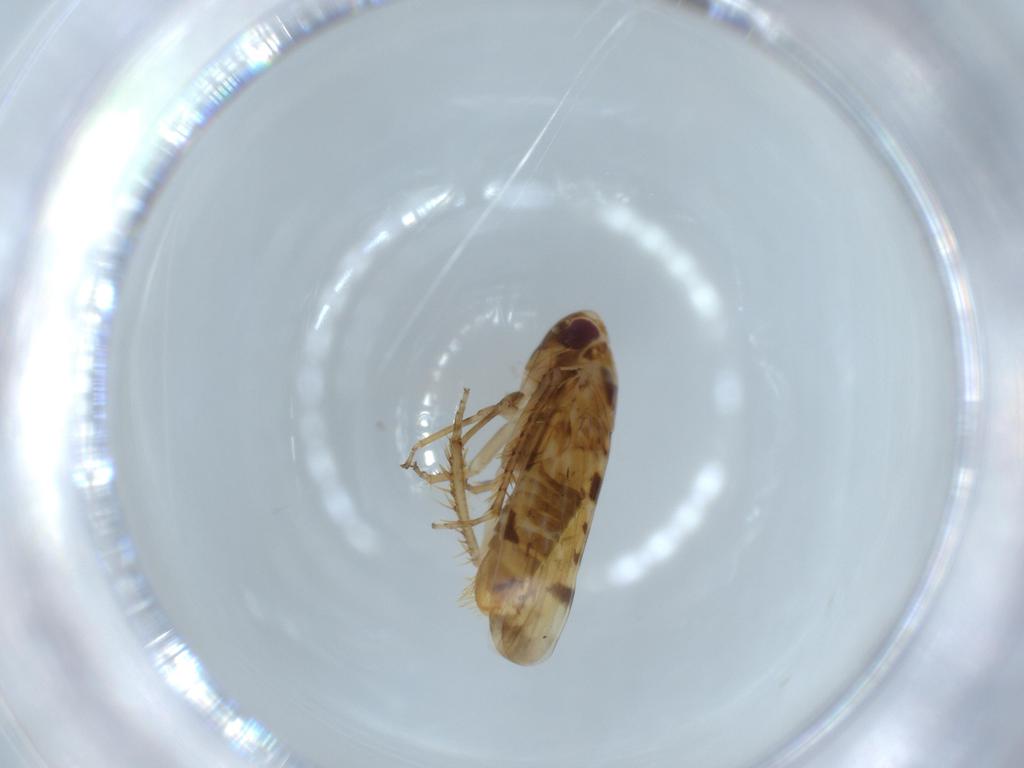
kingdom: Animalia
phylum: Arthropoda
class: Insecta
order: Hemiptera
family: Cicadellidae
